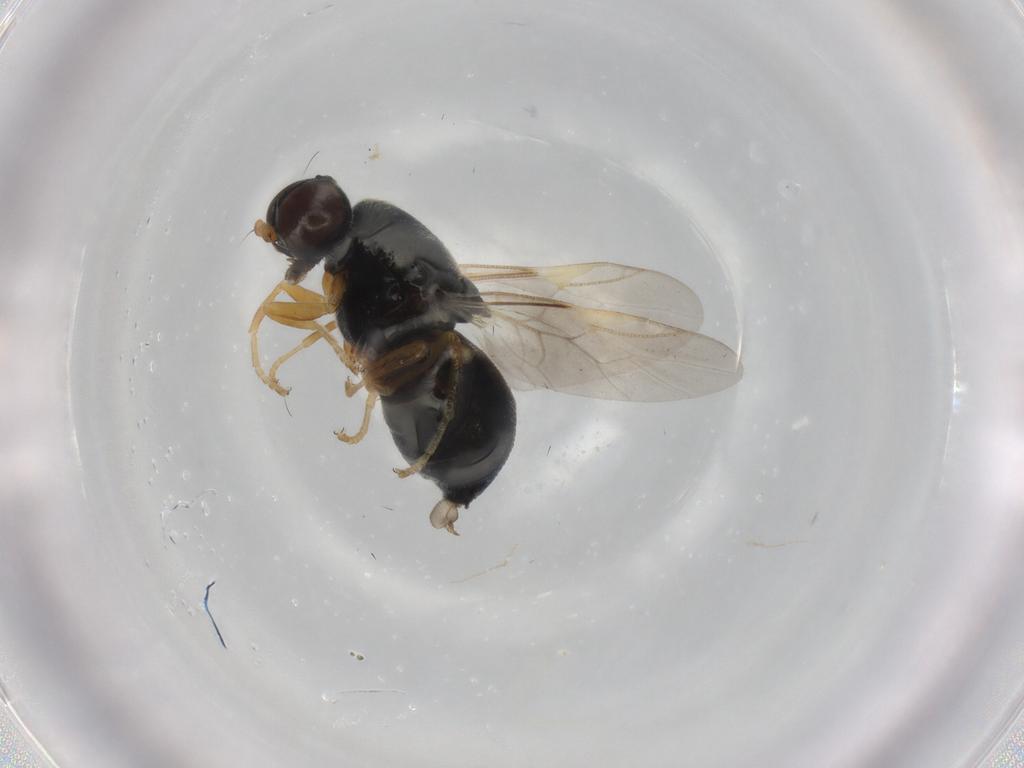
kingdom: Animalia
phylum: Arthropoda
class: Insecta
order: Diptera
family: Stratiomyidae
